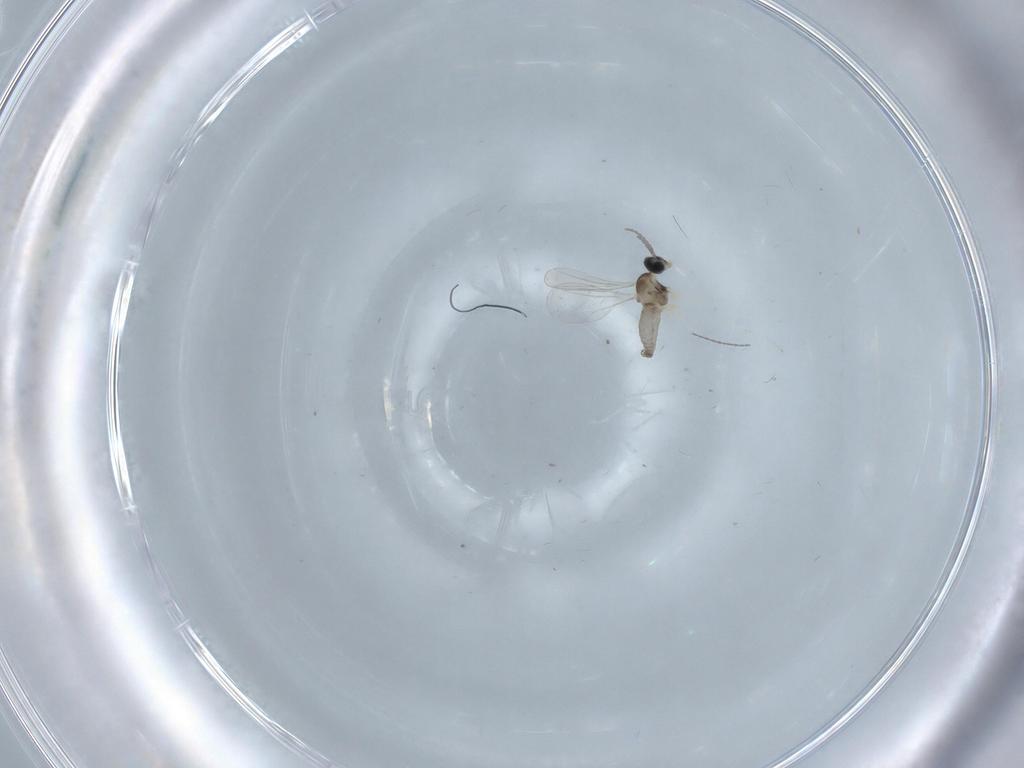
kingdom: Animalia
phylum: Arthropoda
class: Insecta
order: Diptera
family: Cecidomyiidae
